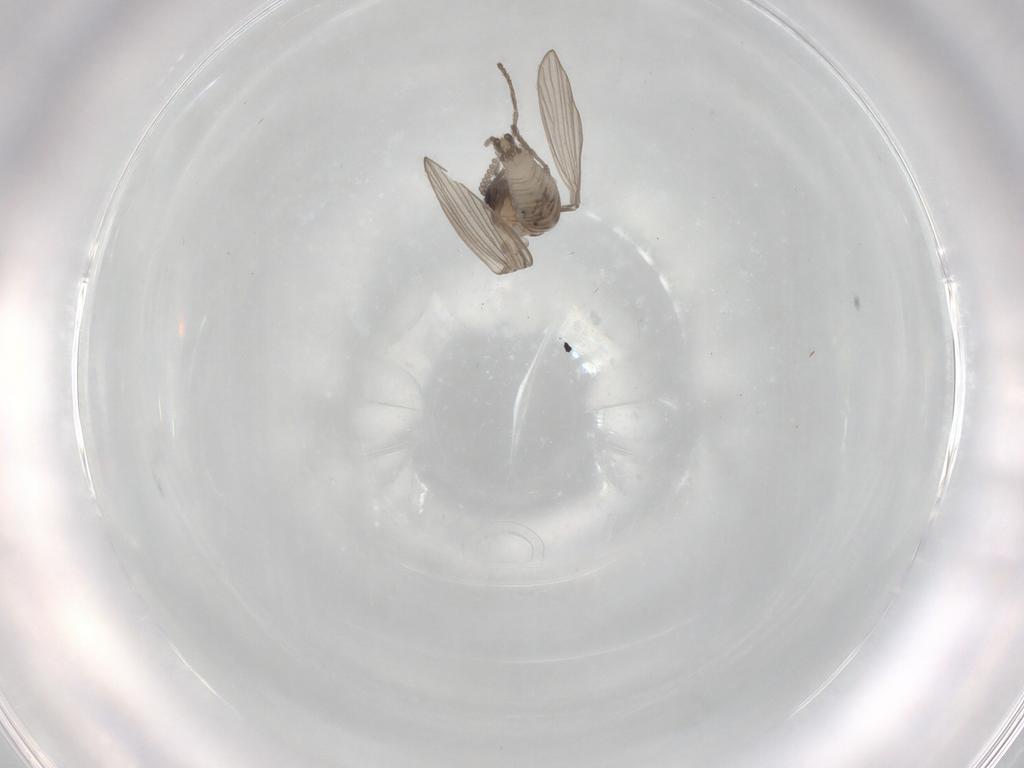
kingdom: Animalia
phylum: Arthropoda
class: Insecta
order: Diptera
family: Psychodidae
